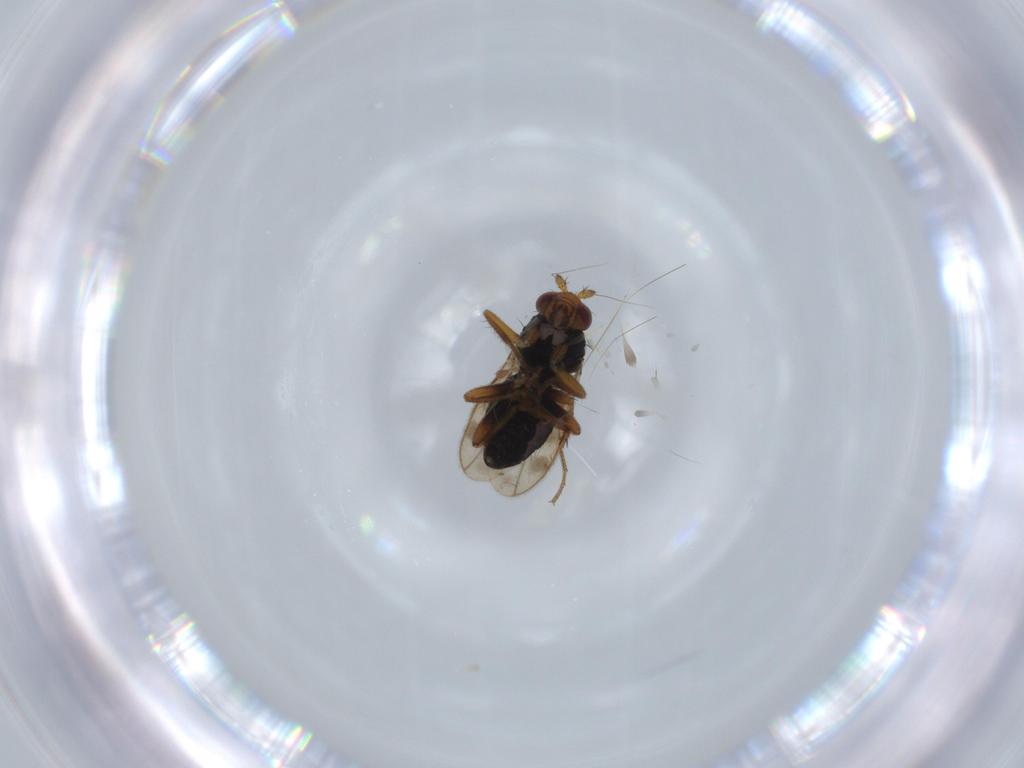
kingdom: Animalia
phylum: Arthropoda
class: Insecta
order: Diptera
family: Sphaeroceridae
